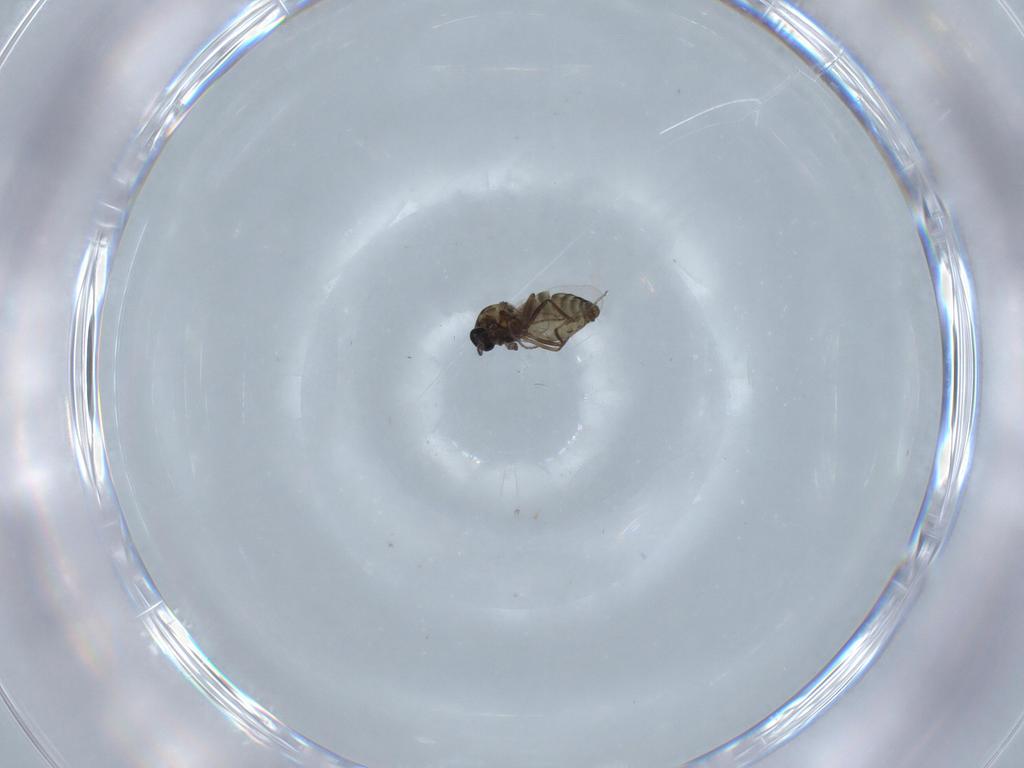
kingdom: Animalia
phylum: Arthropoda
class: Insecta
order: Diptera
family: Ceratopogonidae
